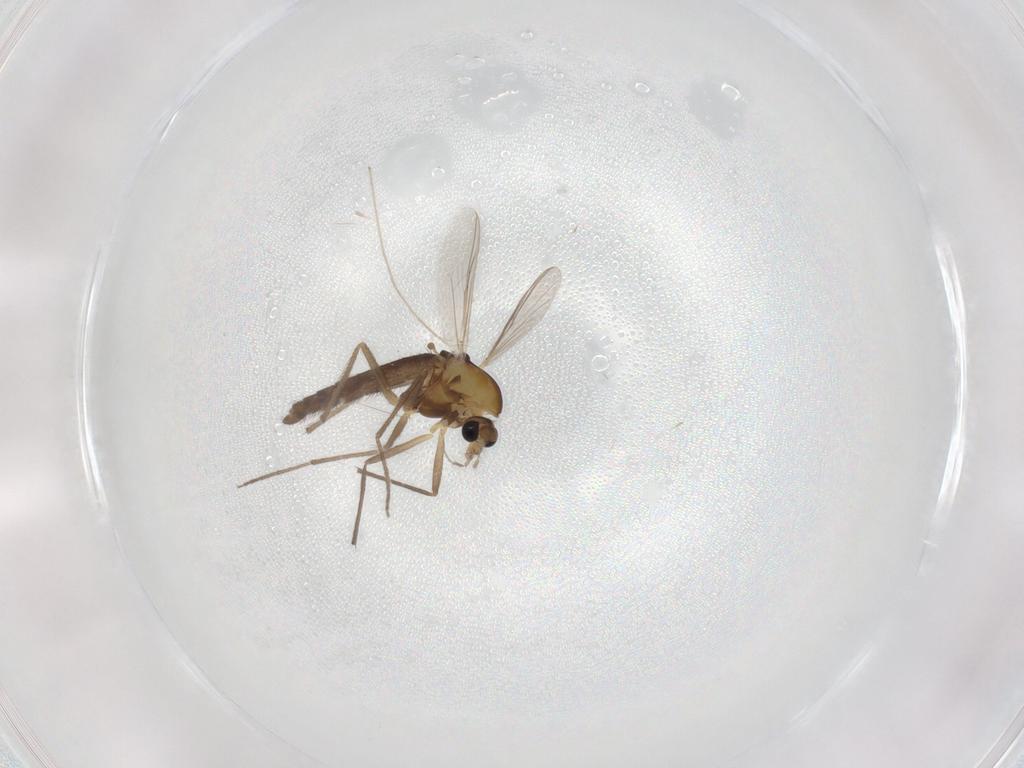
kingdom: Animalia
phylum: Arthropoda
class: Insecta
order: Diptera
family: Chironomidae
